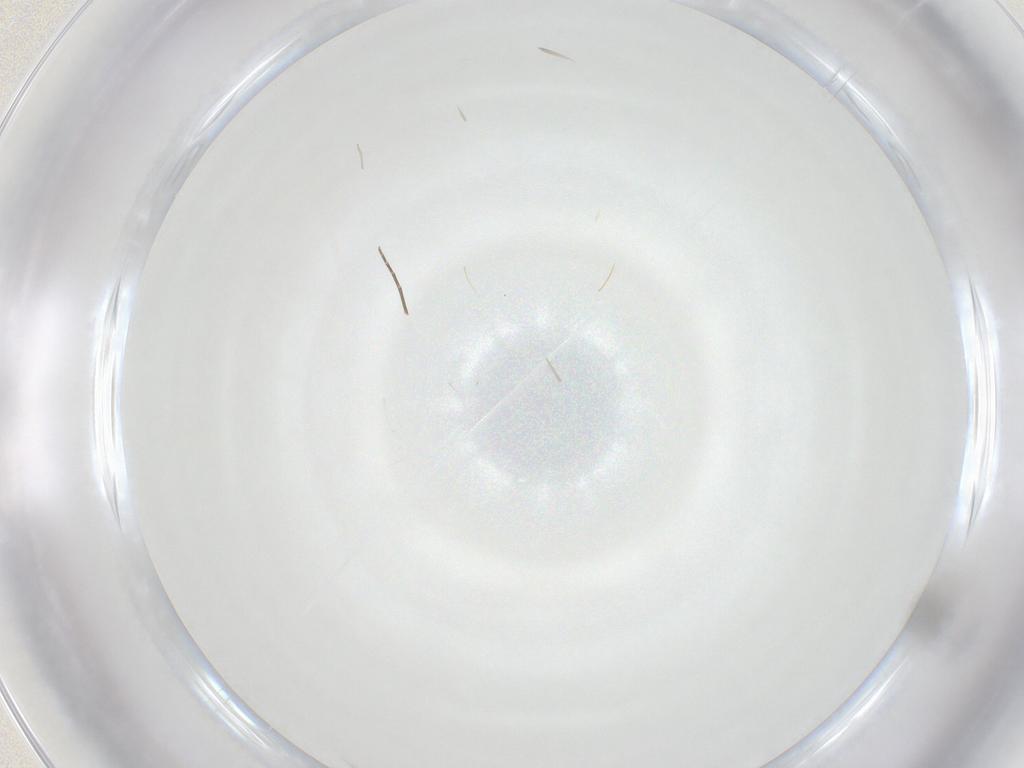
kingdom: Animalia
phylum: Arthropoda
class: Insecta
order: Diptera
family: Cecidomyiidae
